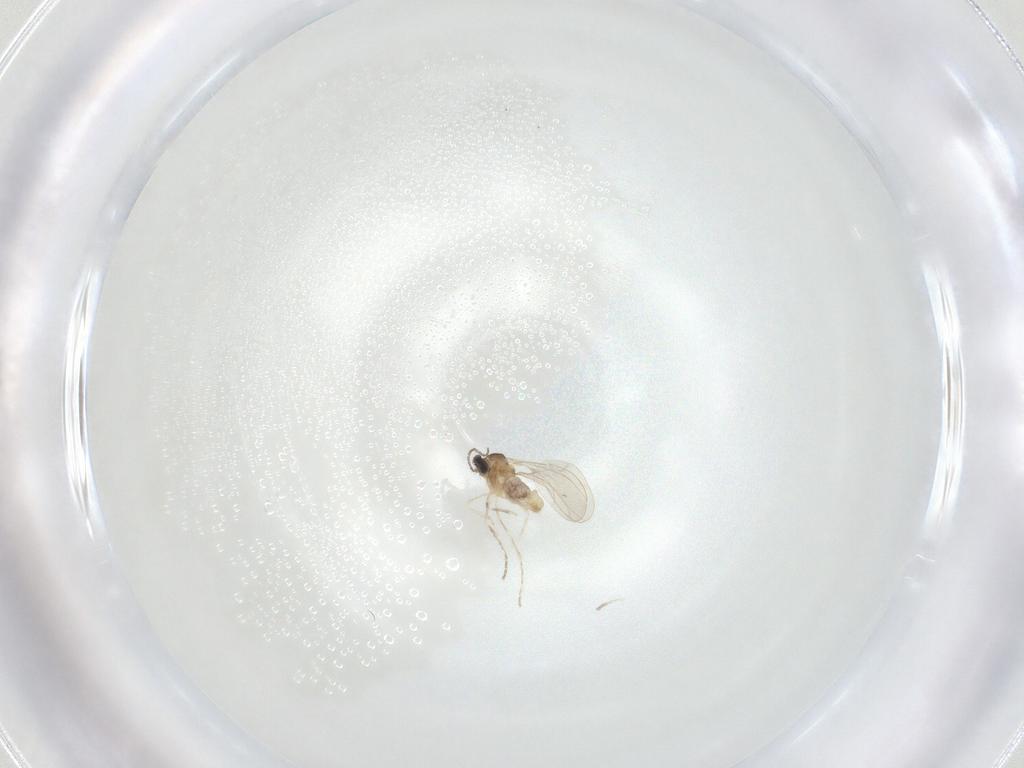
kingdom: Animalia
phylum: Arthropoda
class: Insecta
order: Diptera
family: Cecidomyiidae
